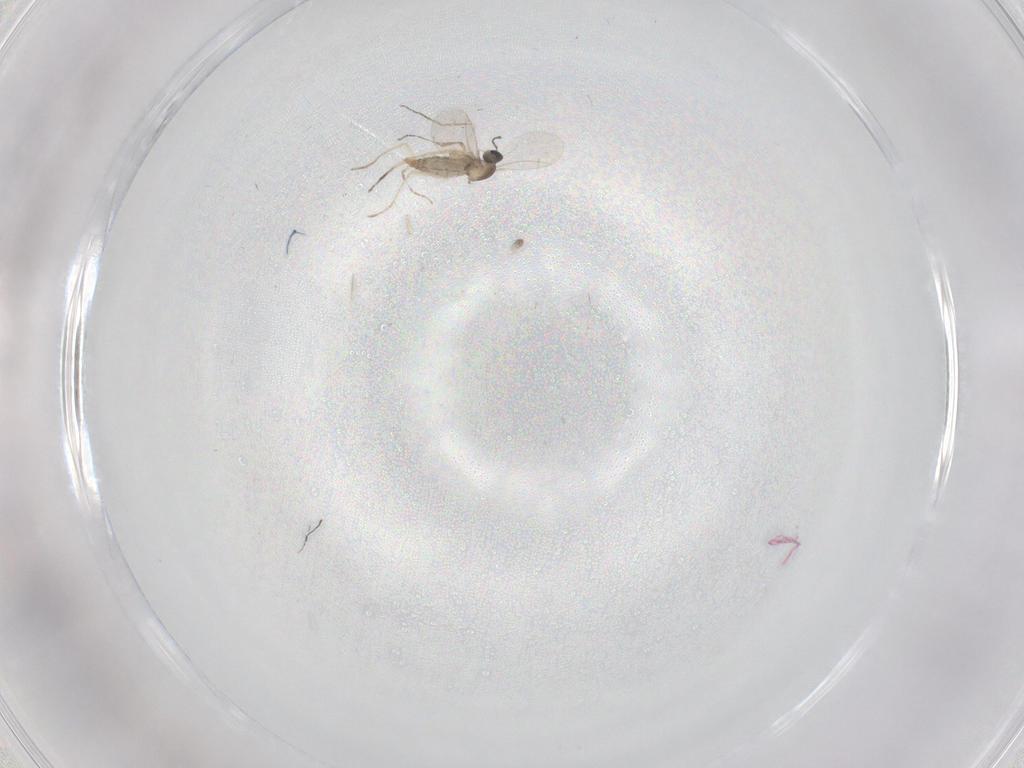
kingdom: Animalia
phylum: Arthropoda
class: Insecta
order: Diptera
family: Cecidomyiidae
